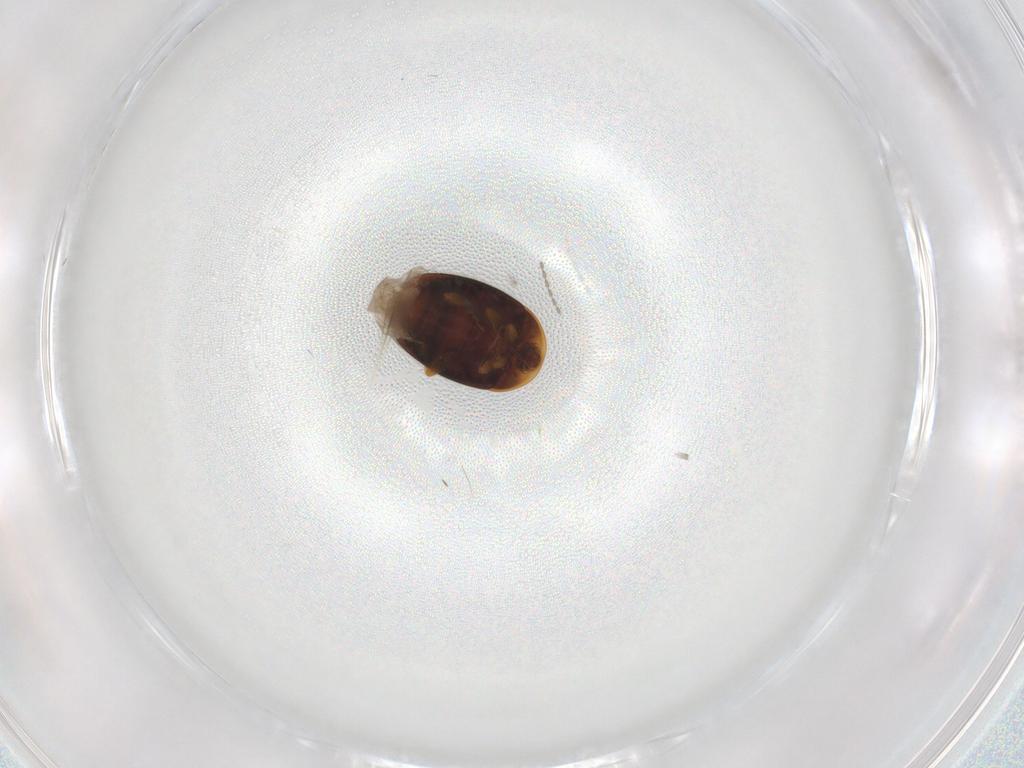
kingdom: Animalia
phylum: Arthropoda
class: Insecta
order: Coleoptera
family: Corylophidae
